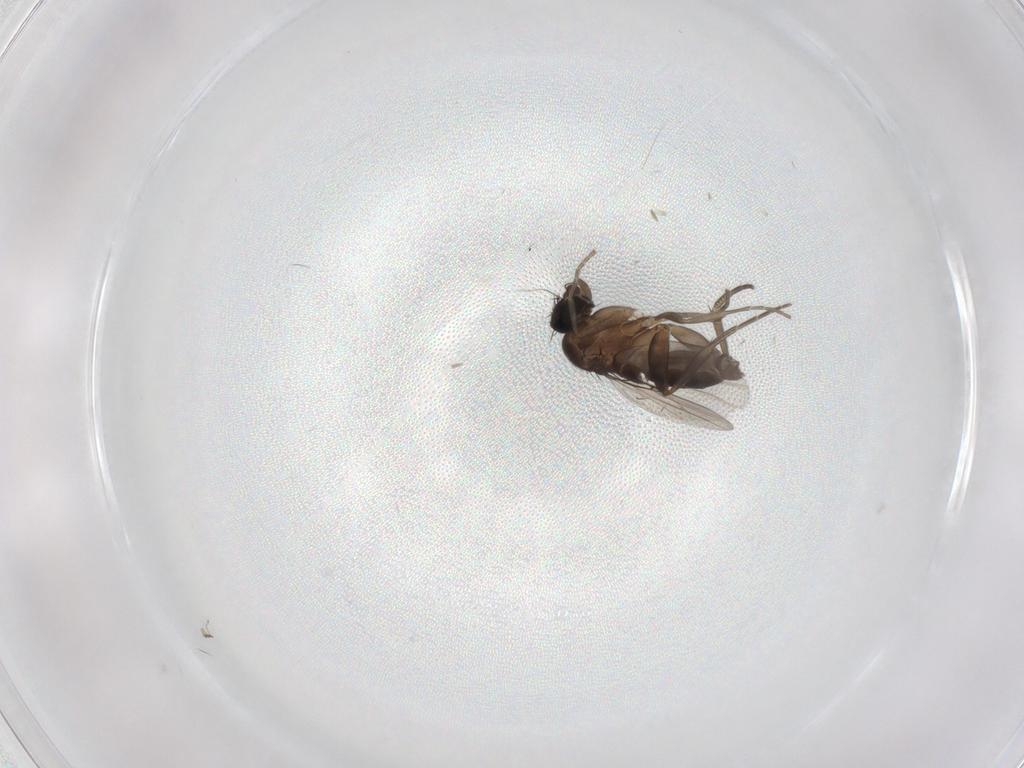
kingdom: Animalia
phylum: Arthropoda
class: Insecta
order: Diptera
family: Phoridae
